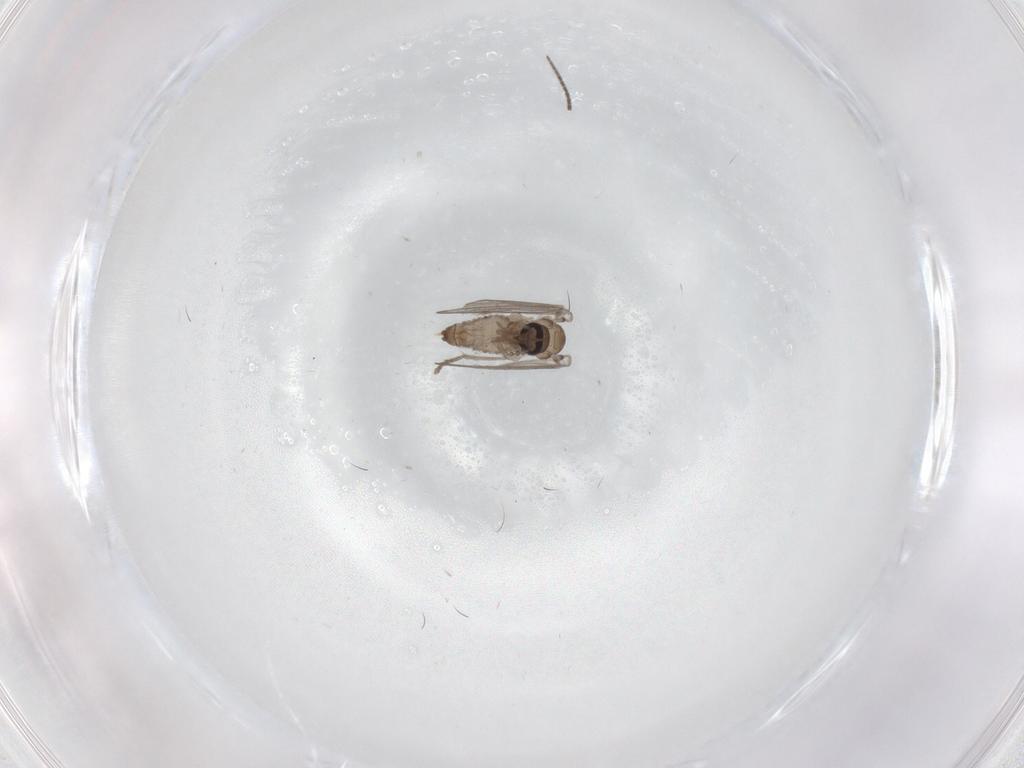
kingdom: Animalia
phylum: Arthropoda
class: Insecta
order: Diptera
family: Psychodidae
